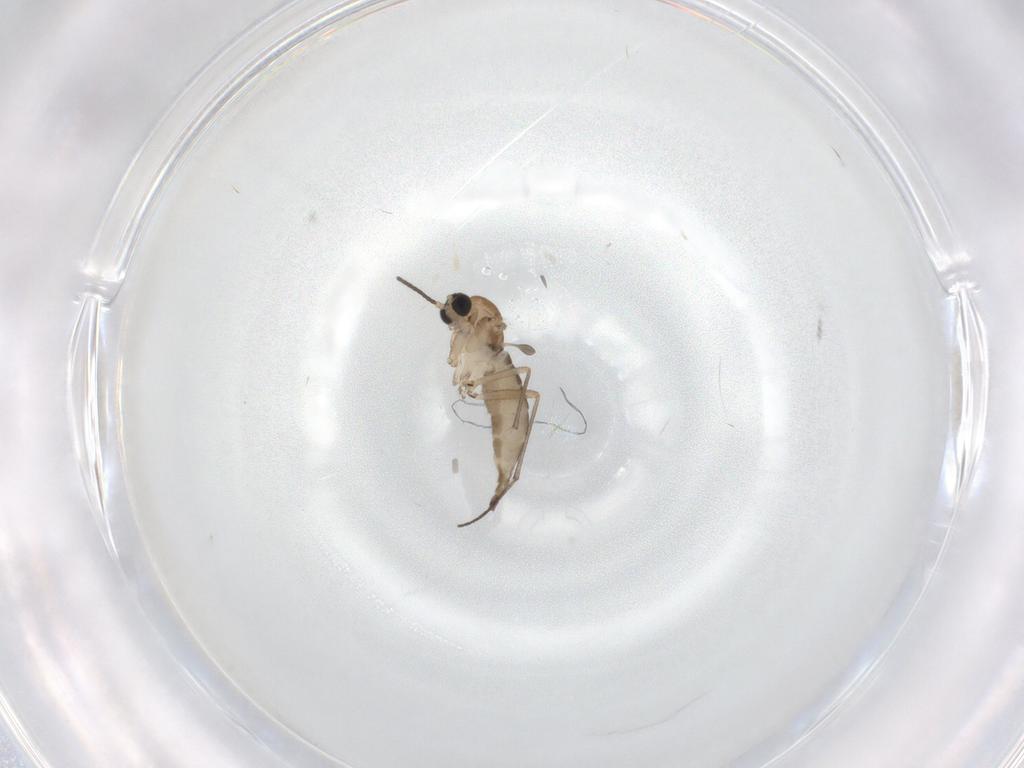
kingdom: Animalia
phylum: Arthropoda
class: Insecta
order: Diptera
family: Sciaridae
